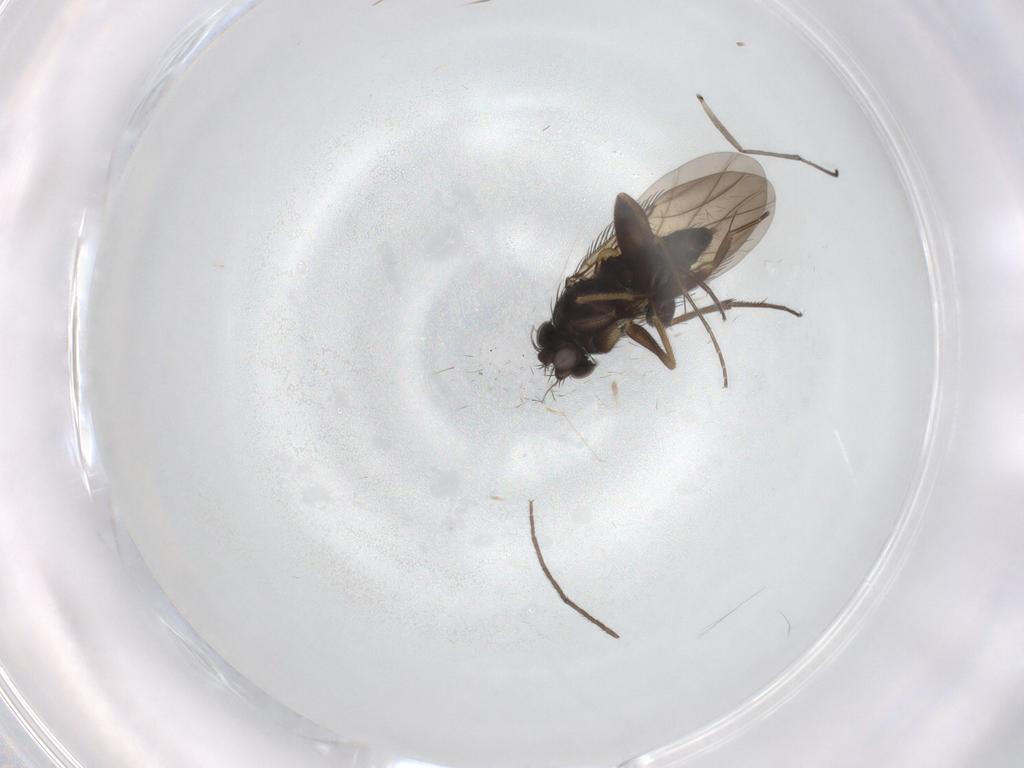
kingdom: Animalia
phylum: Arthropoda
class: Insecta
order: Diptera
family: Phoridae
